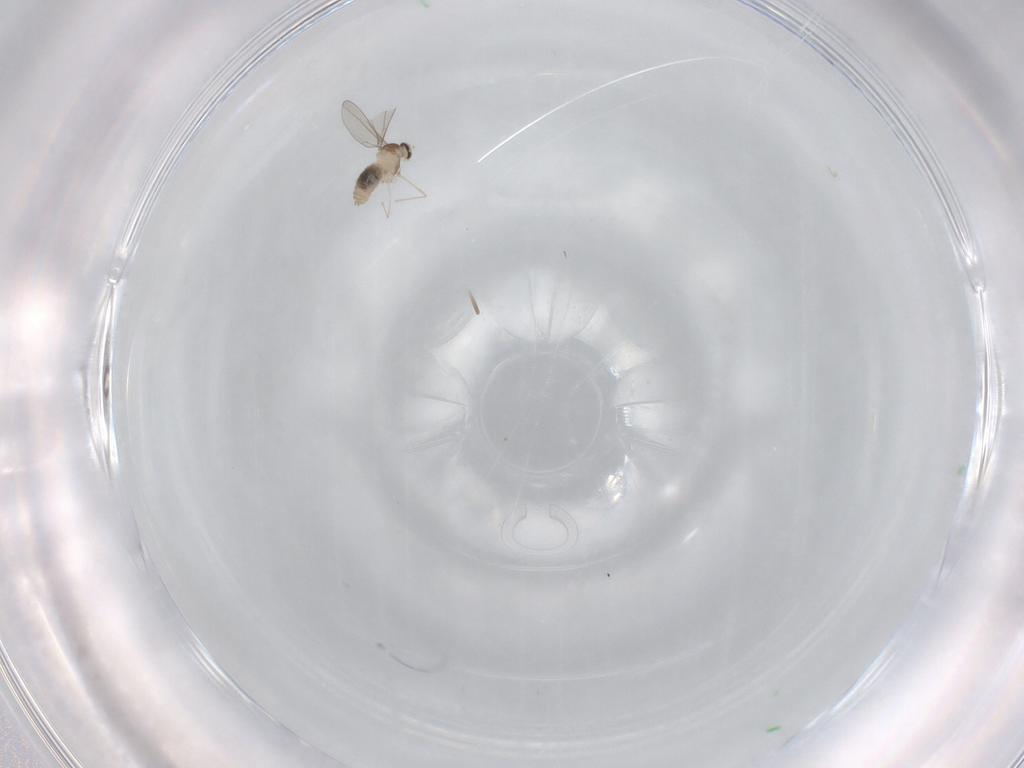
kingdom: Animalia
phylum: Arthropoda
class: Insecta
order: Diptera
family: Cecidomyiidae
